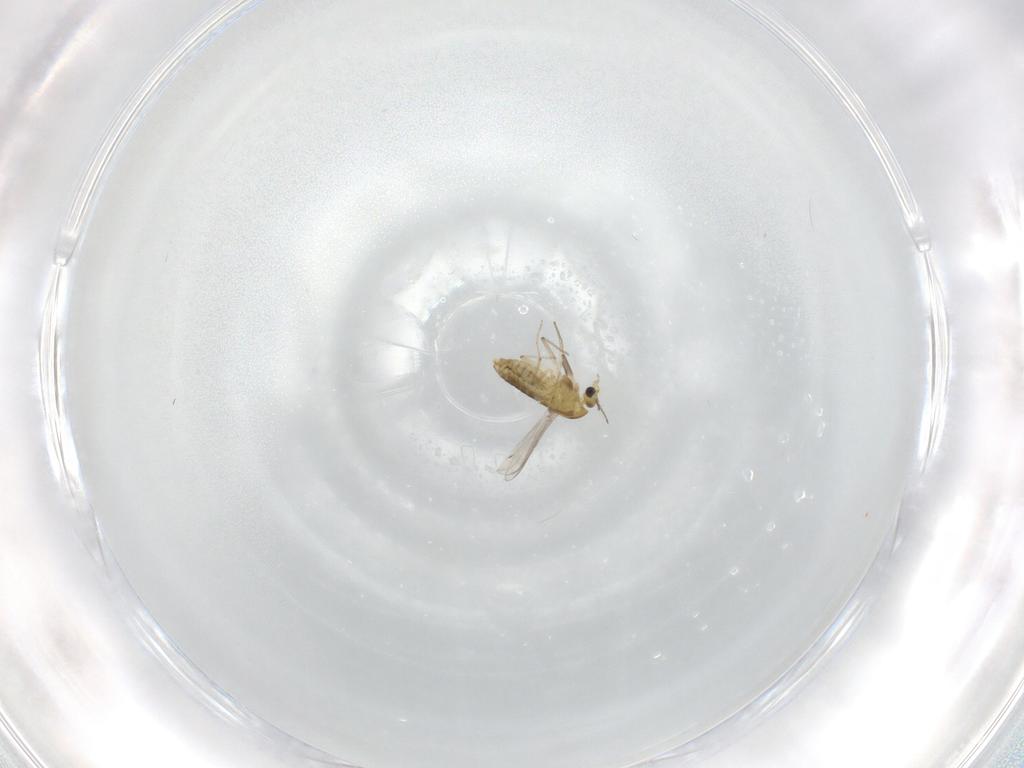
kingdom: Animalia
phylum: Arthropoda
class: Insecta
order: Diptera
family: Chironomidae
